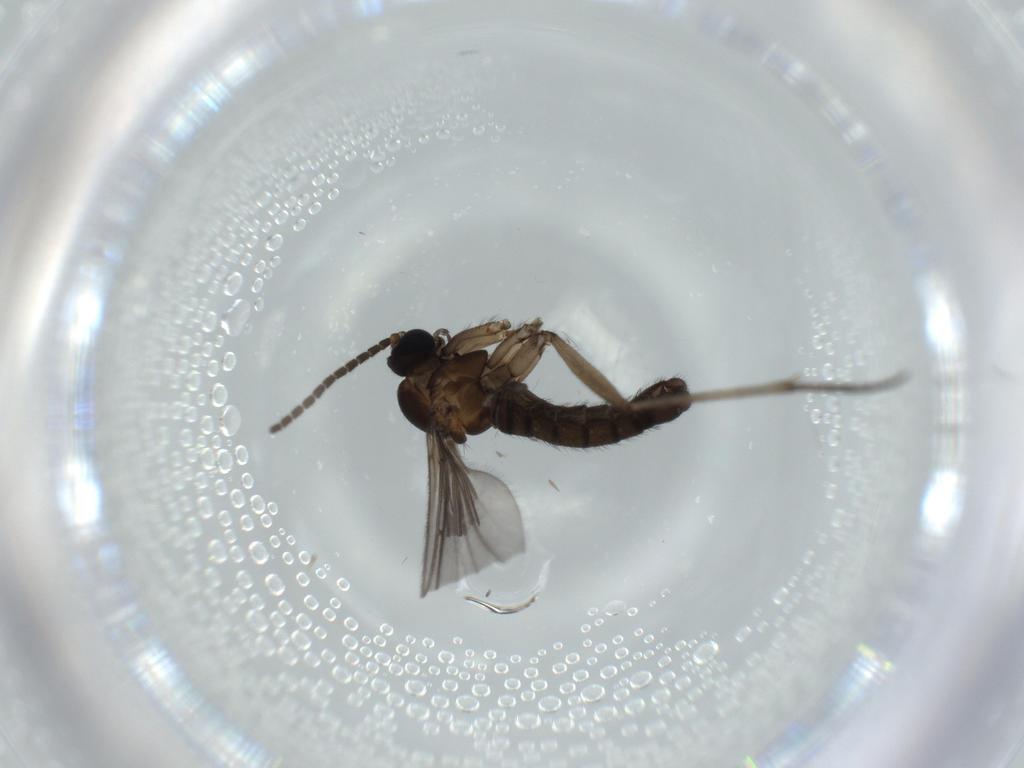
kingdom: Animalia
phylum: Arthropoda
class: Insecta
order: Diptera
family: Sciaridae
